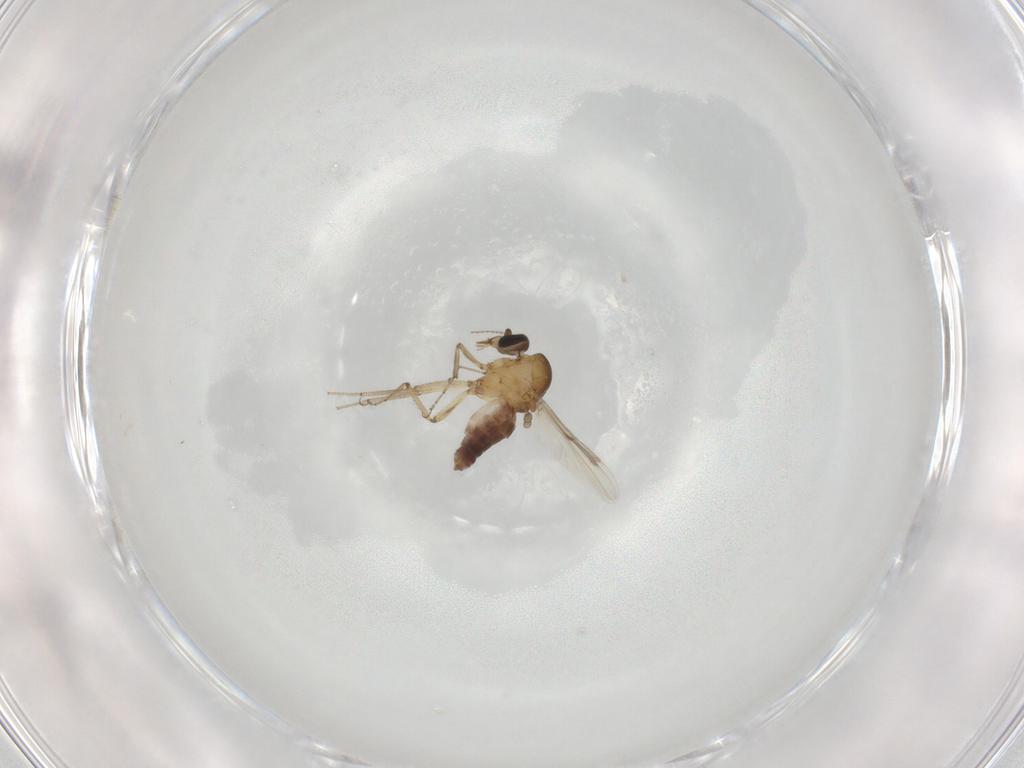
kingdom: Animalia
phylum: Arthropoda
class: Insecta
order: Diptera
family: Ceratopogonidae
